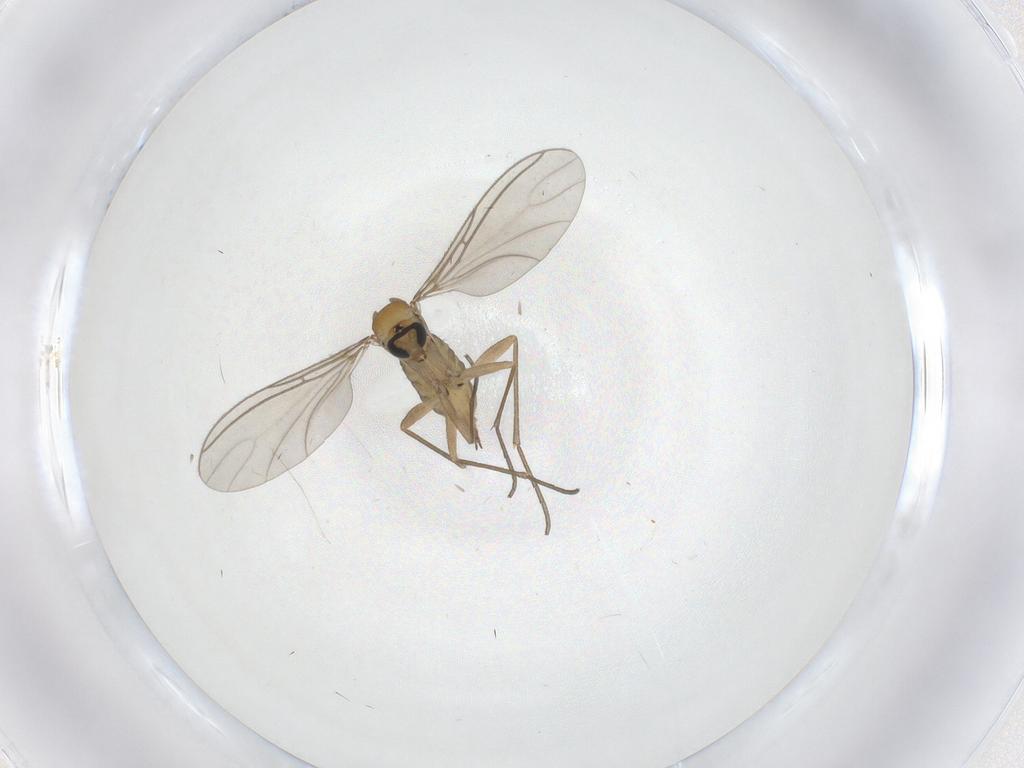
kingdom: Animalia
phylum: Arthropoda
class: Insecta
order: Diptera
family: Sciaridae
